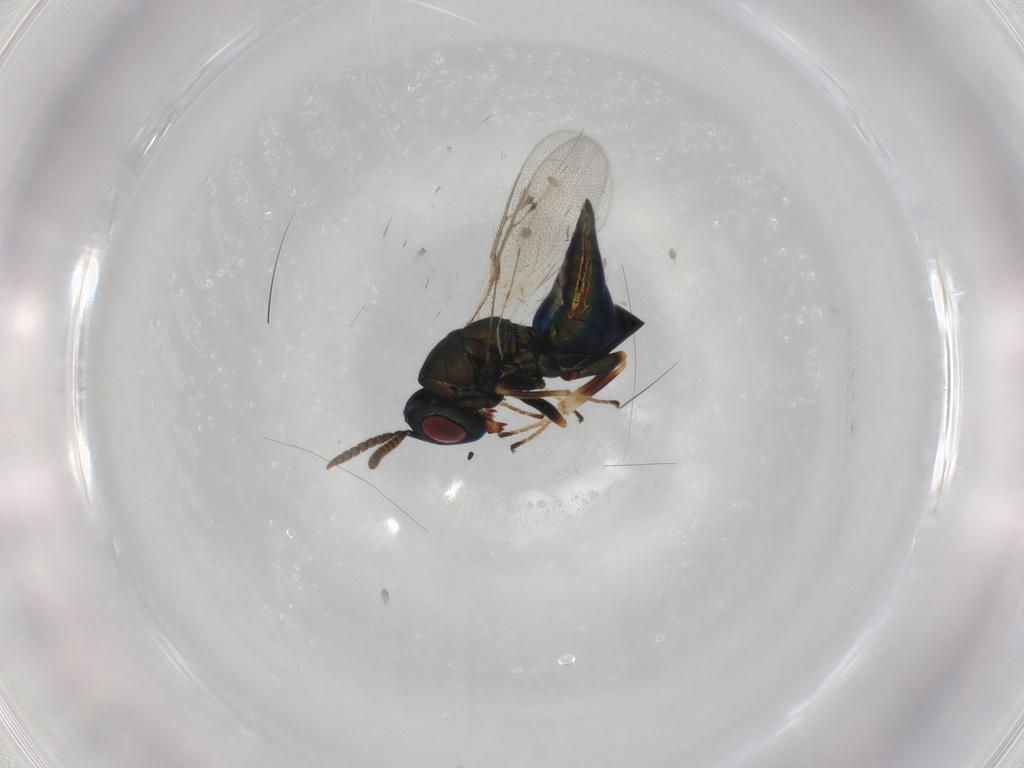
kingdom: Animalia
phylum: Arthropoda
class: Insecta
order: Hymenoptera
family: Pteromalidae
